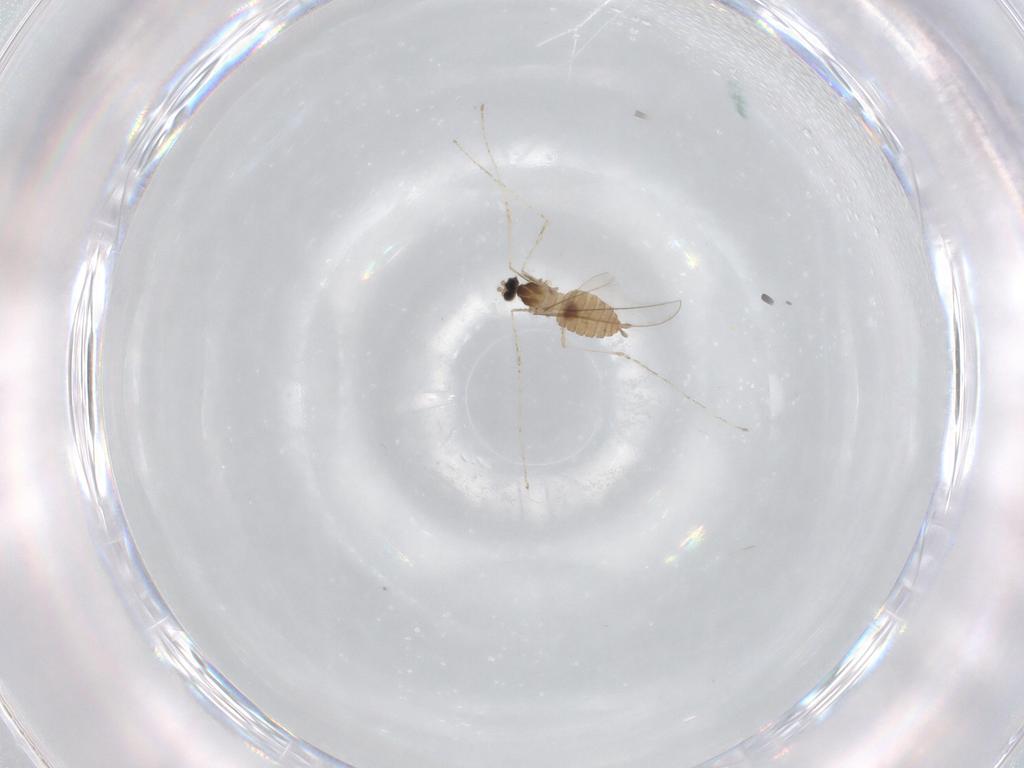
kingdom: Animalia
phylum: Arthropoda
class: Insecta
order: Diptera
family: Cecidomyiidae
